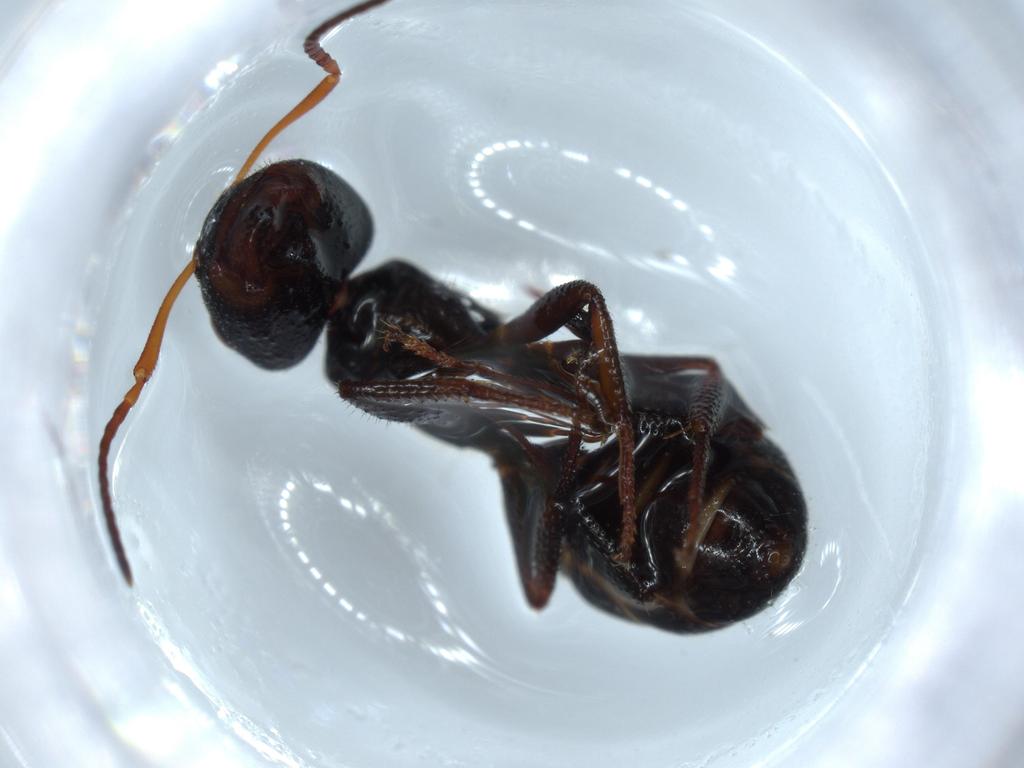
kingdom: Animalia
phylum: Arthropoda
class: Insecta
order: Hymenoptera
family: Formicidae
